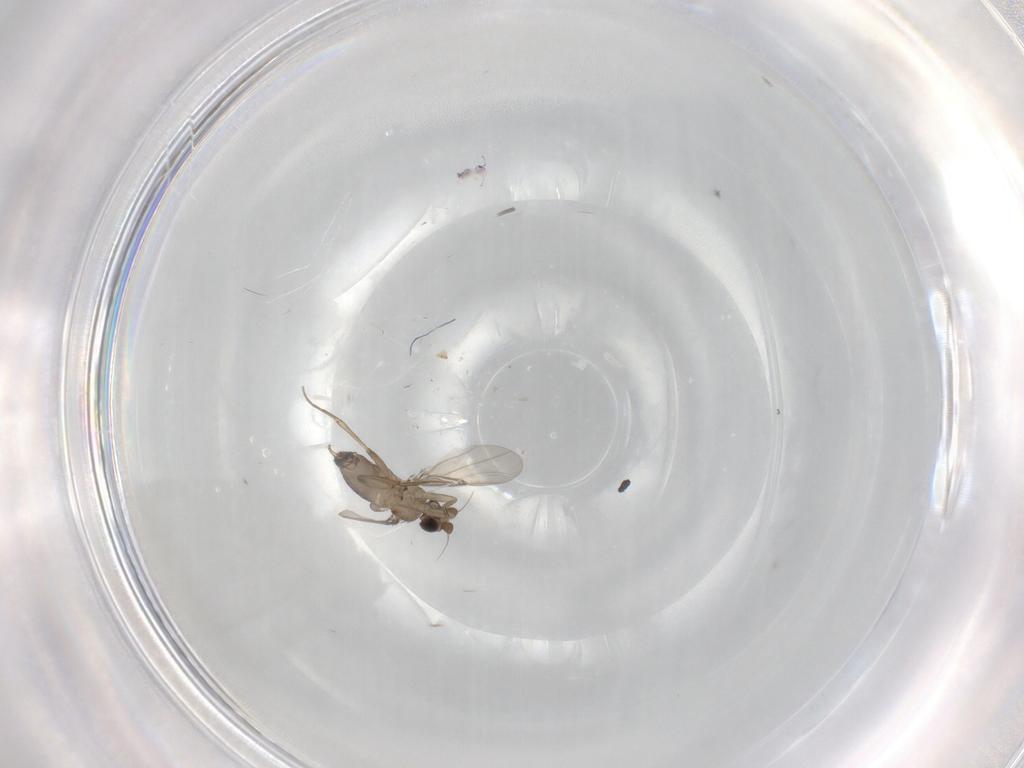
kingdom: Animalia
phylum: Arthropoda
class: Insecta
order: Diptera
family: Phoridae
